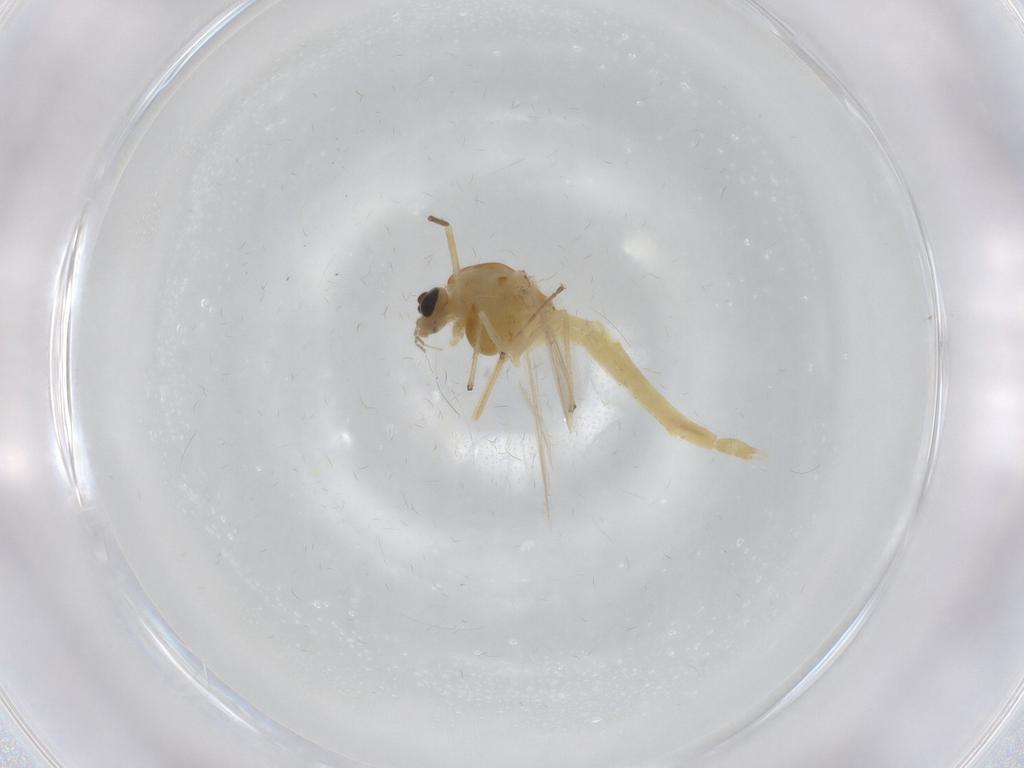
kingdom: Animalia
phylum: Arthropoda
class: Insecta
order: Diptera
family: Chironomidae
